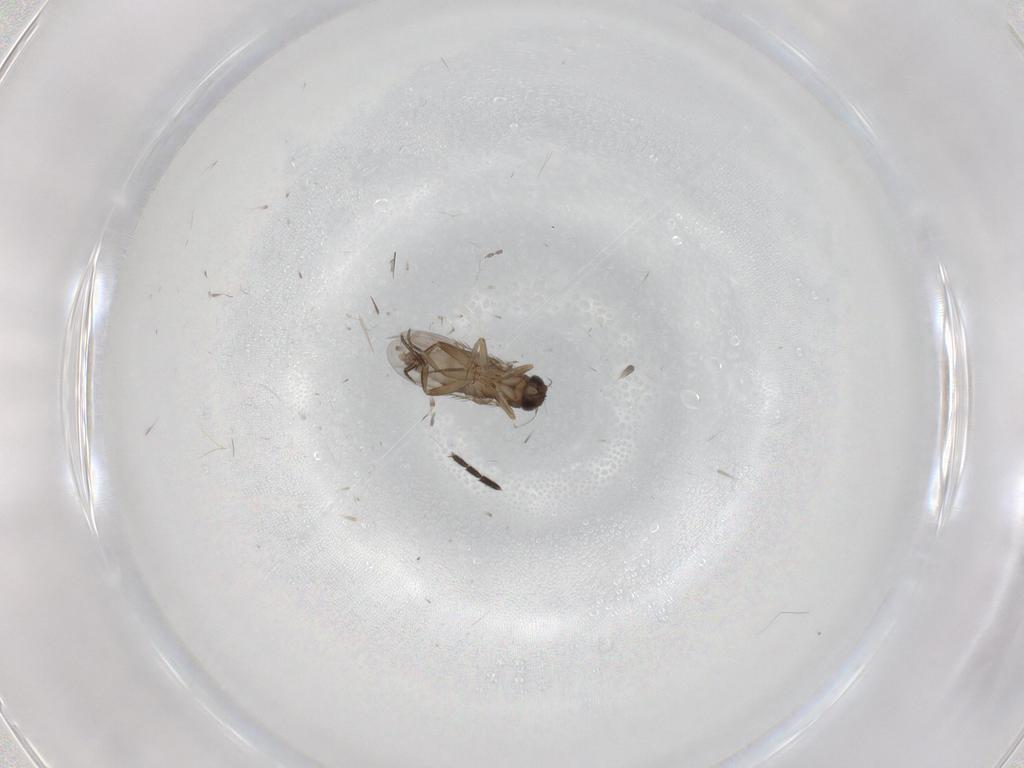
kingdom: Animalia
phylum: Arthropoda
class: Insecta
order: Diptera
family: Phoridae
